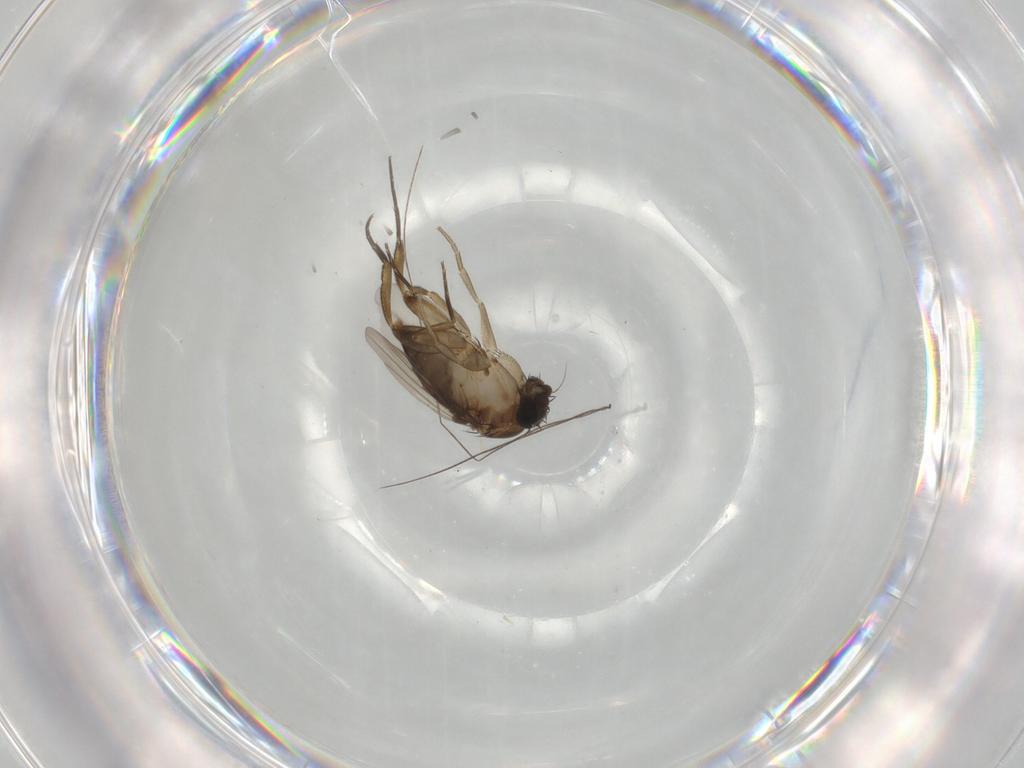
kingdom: Animalia
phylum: Arthropoda
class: Insecta
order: Diptera
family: Phoridae
